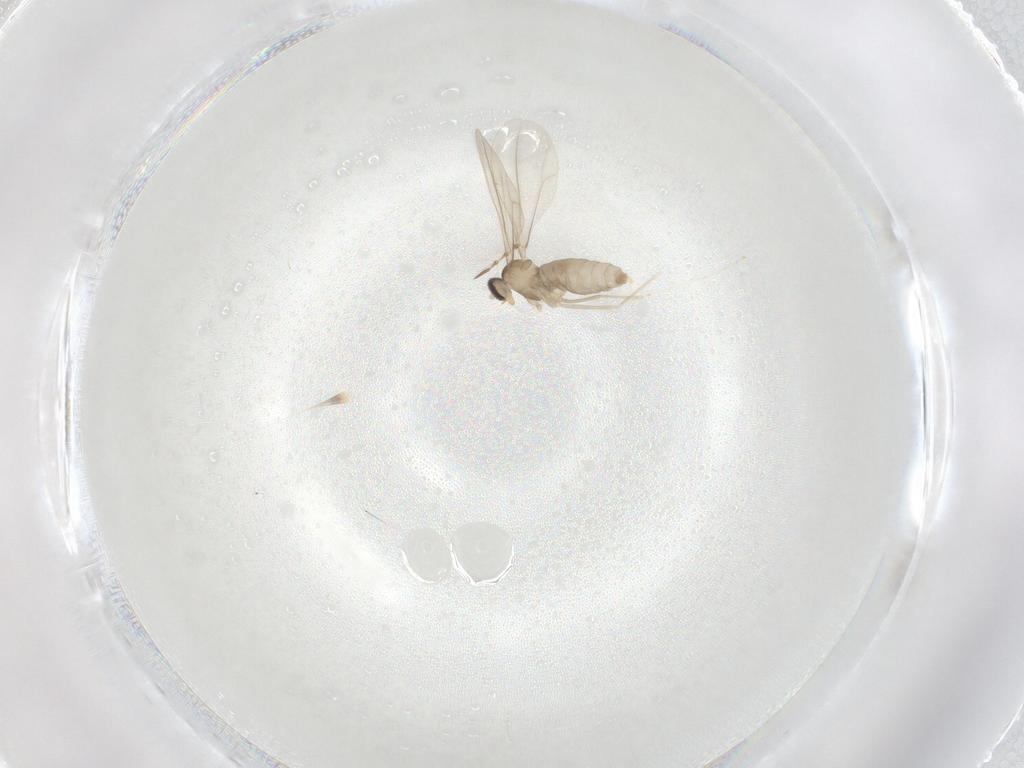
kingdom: Animalia
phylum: Arthropoda
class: Insecta
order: Diptera
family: Cecidomyiidae
